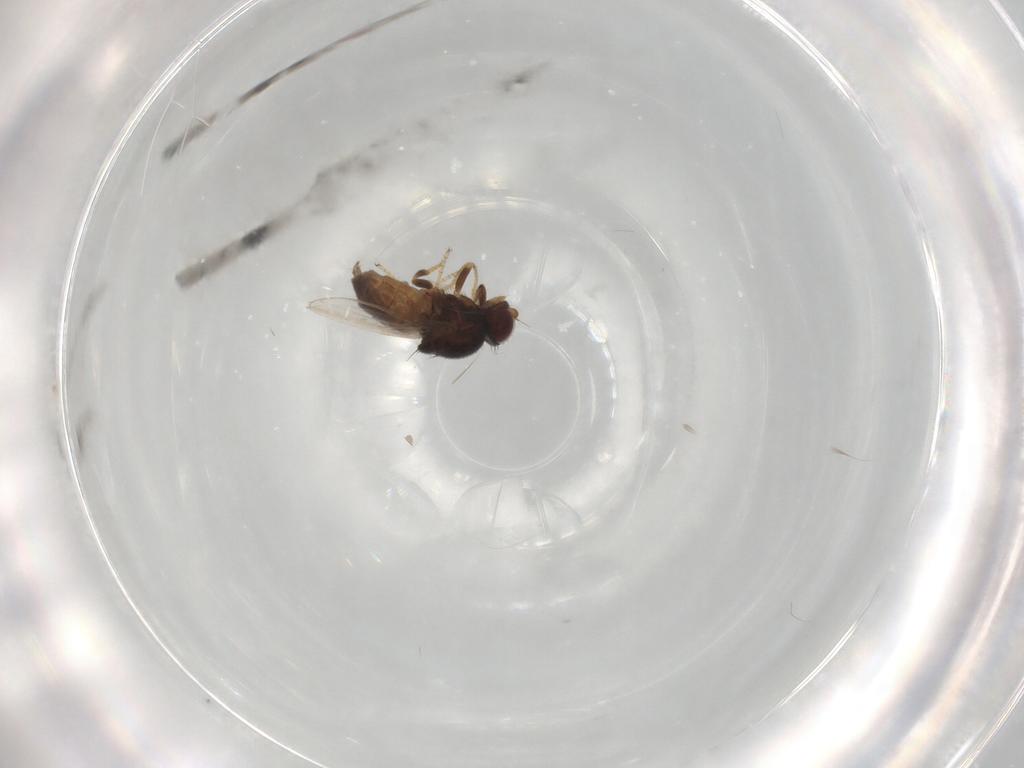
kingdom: Animalia
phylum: Arthropoda
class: Insecta
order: Diptera
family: Chloropidae
